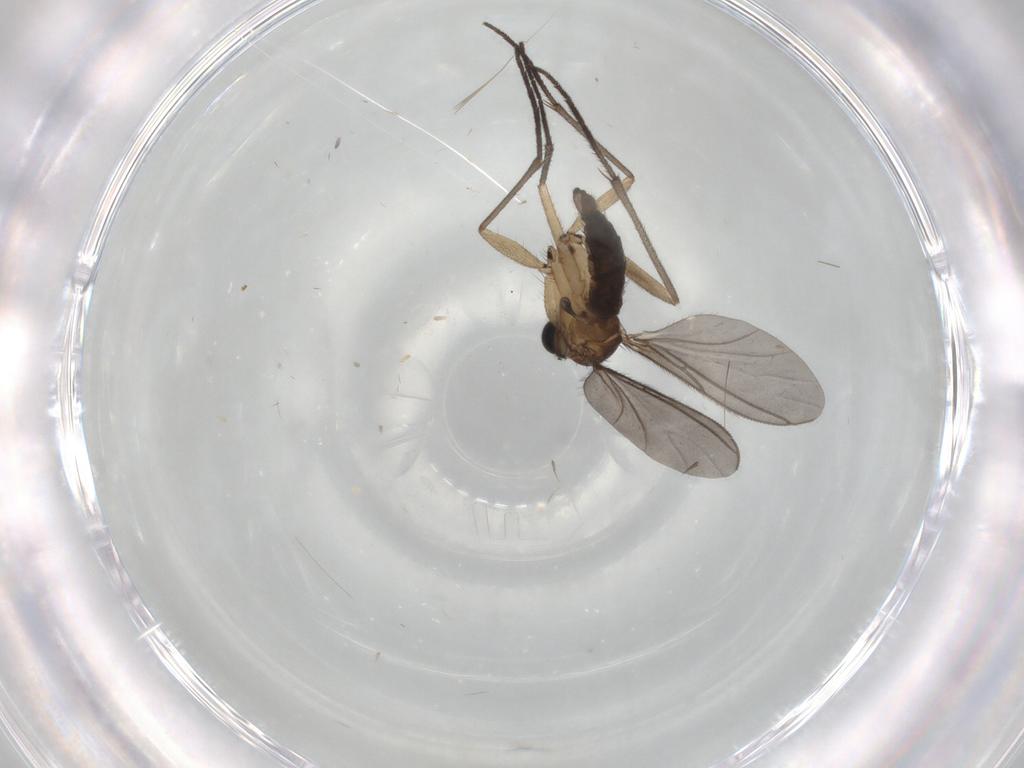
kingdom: Animalia
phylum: Arthropoda
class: Insecta
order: Diptera
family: Sciaridae
